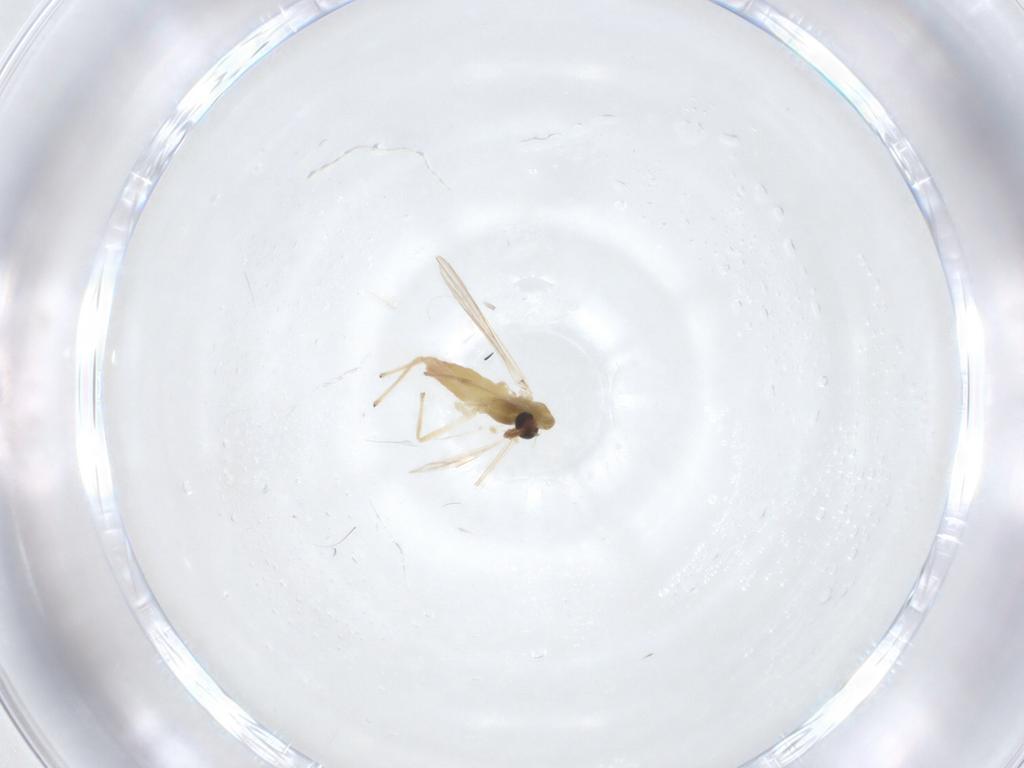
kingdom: Animalia
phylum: Arthropoda
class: Insecta
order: Diptera
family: Chironomidae
